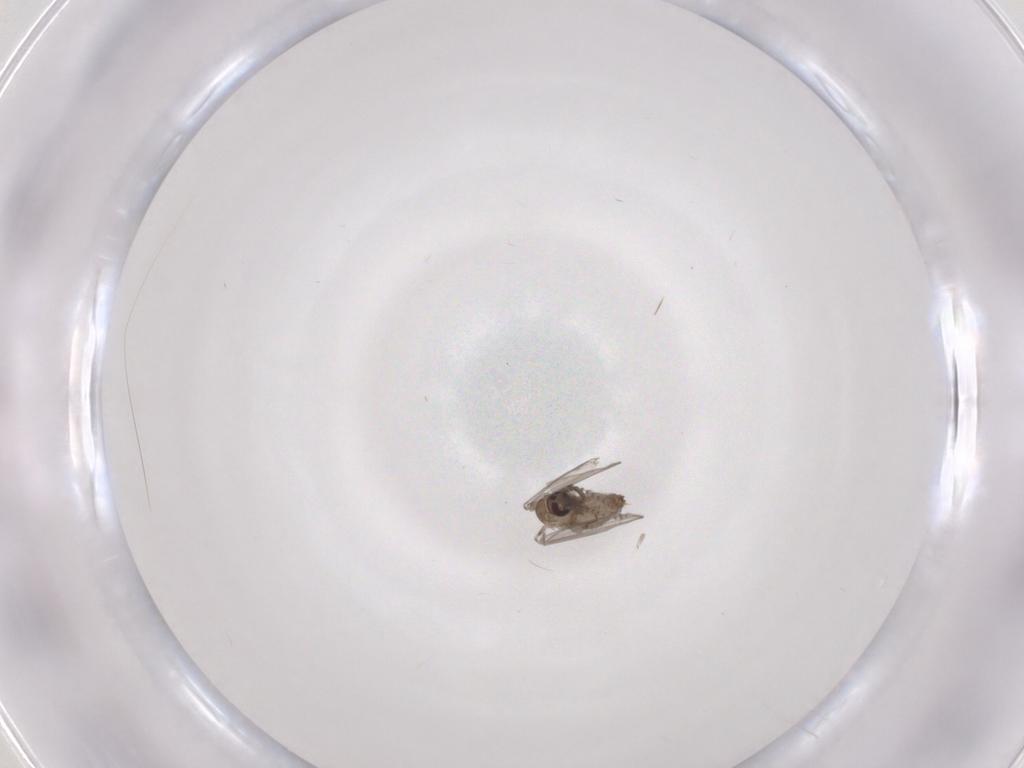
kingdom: Animalia
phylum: Arthropoda
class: Insecta
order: Diptera
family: Psychodidae
